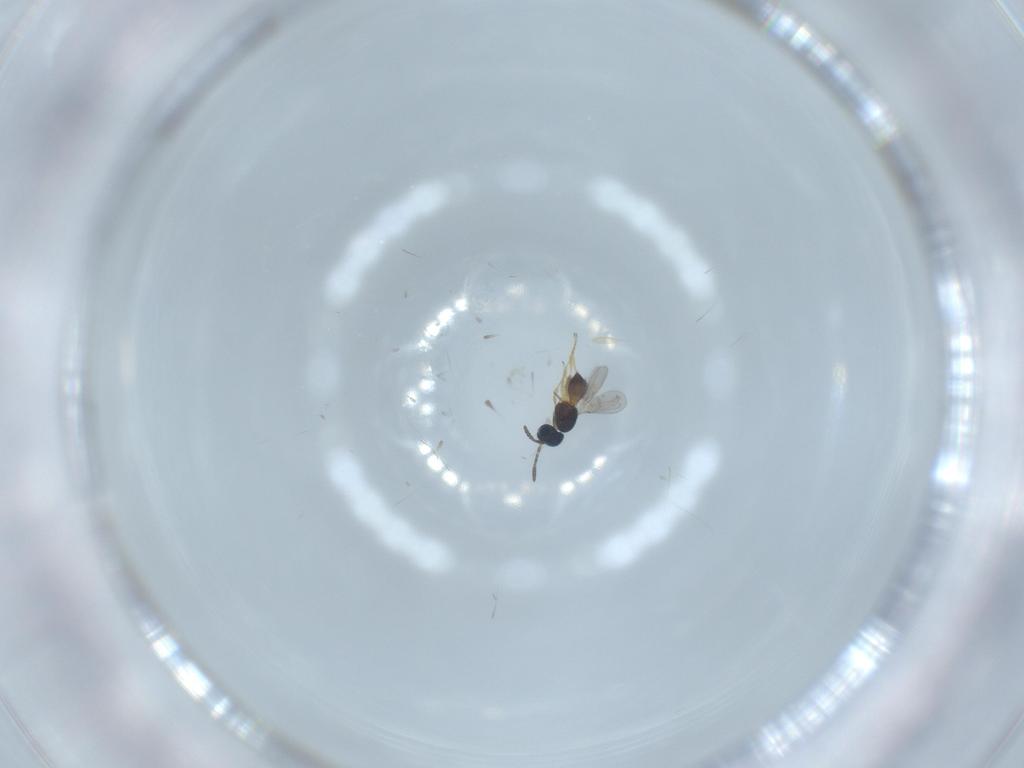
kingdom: Animalia
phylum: Arthropoda
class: Insecta
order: Hymenoptera
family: Scelionidae
